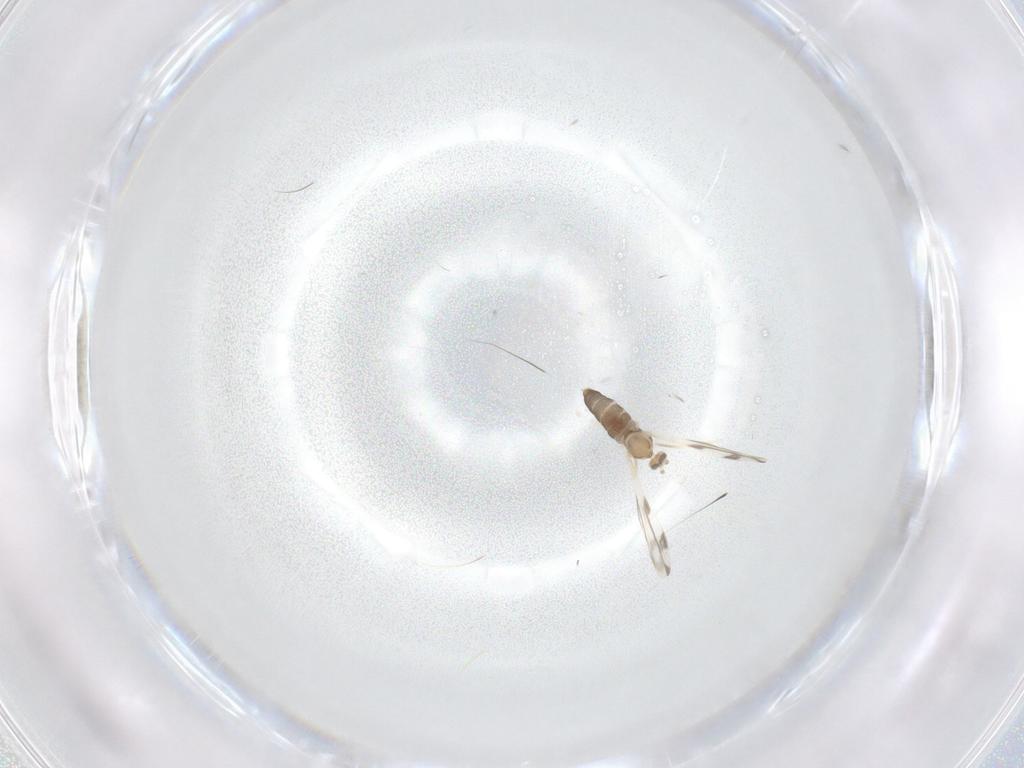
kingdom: Animalia
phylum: Arthropoda
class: Insecta
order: Diptera
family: Cecidomyiidae
